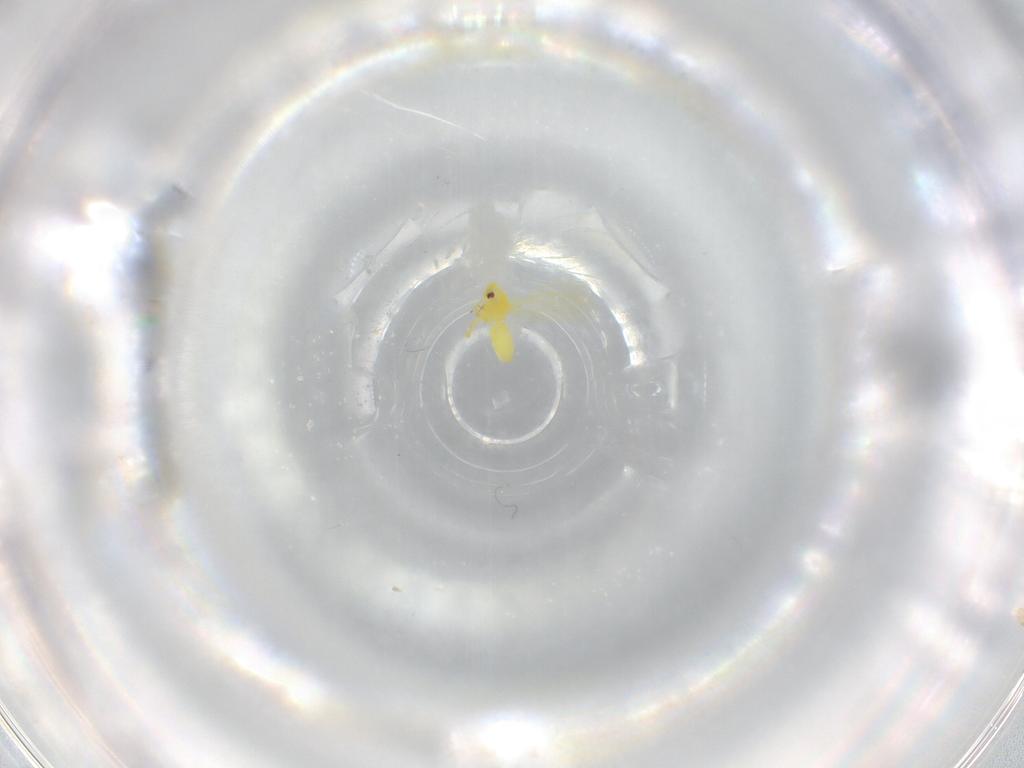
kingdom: Animalia
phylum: Arthropoda
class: Insecta
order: Hemiptera
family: Aleyrodidae
